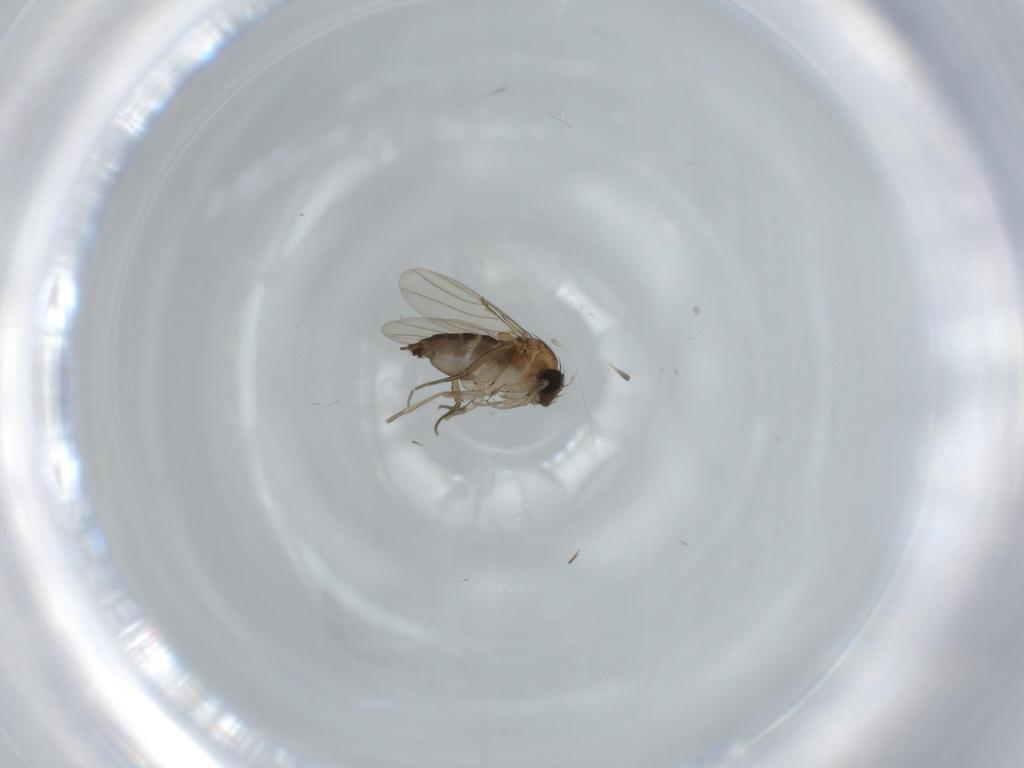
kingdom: Animalia
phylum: Arthropoda
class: Insecta
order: Diptera
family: Phoridae
